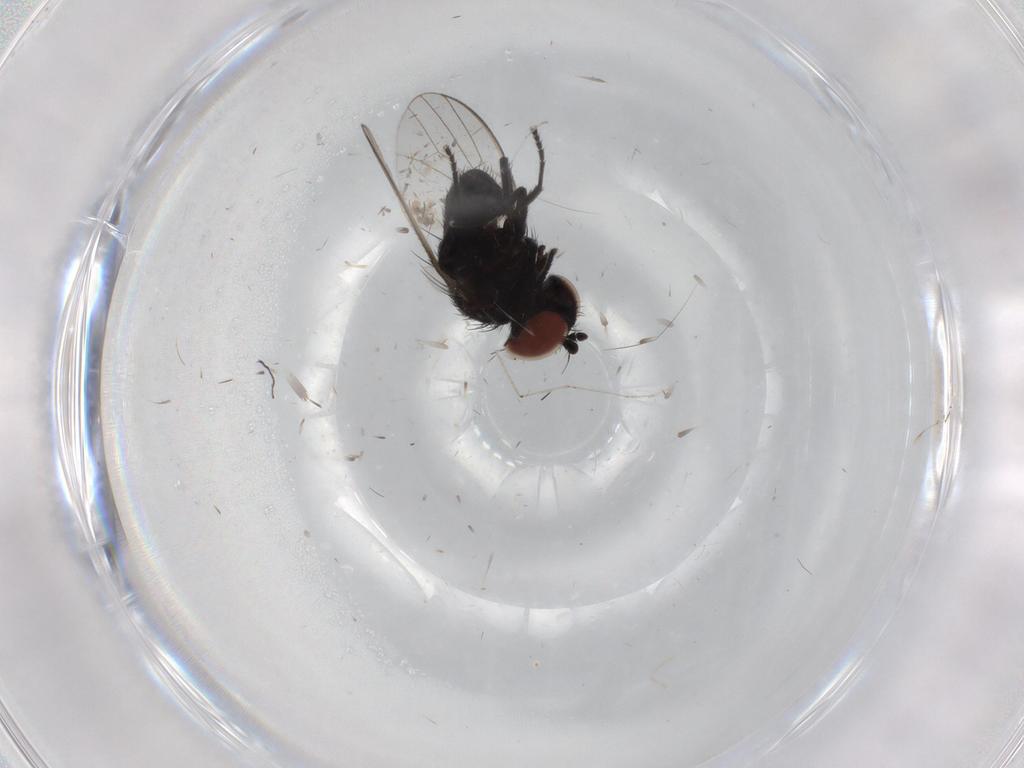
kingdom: Animalia
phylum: Arthropoda
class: Insecta
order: Diptera
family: Cecidomyiidae
